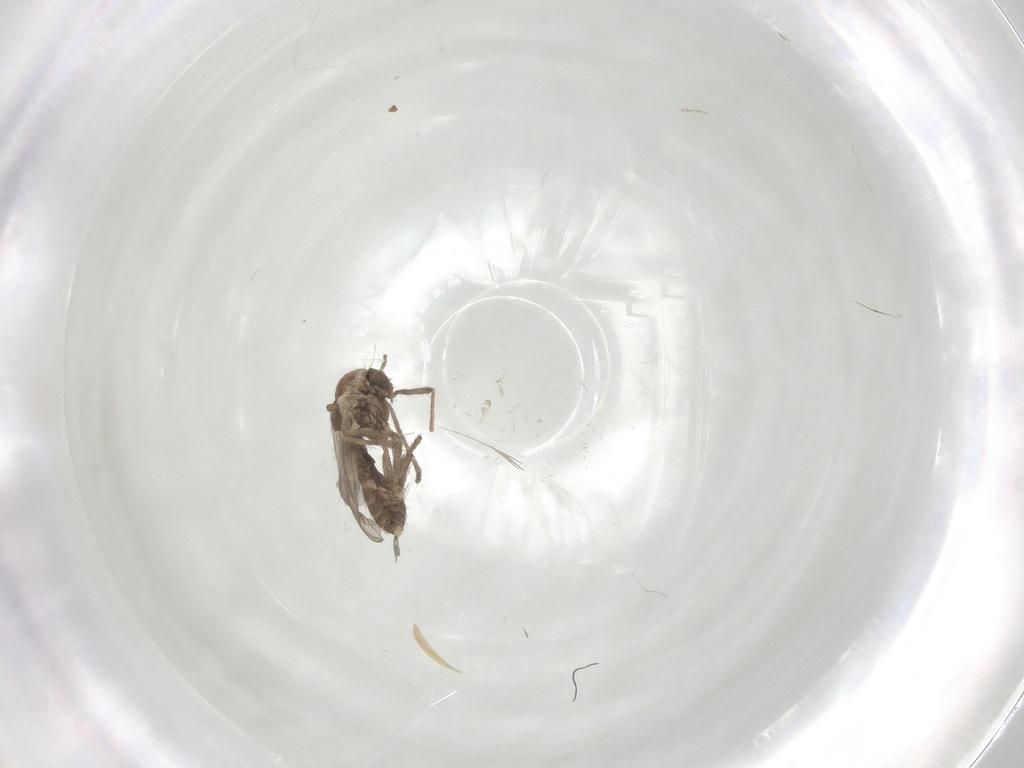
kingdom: Animalia
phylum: Arthropoda
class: Insecta
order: Diptera
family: Chironomidae
